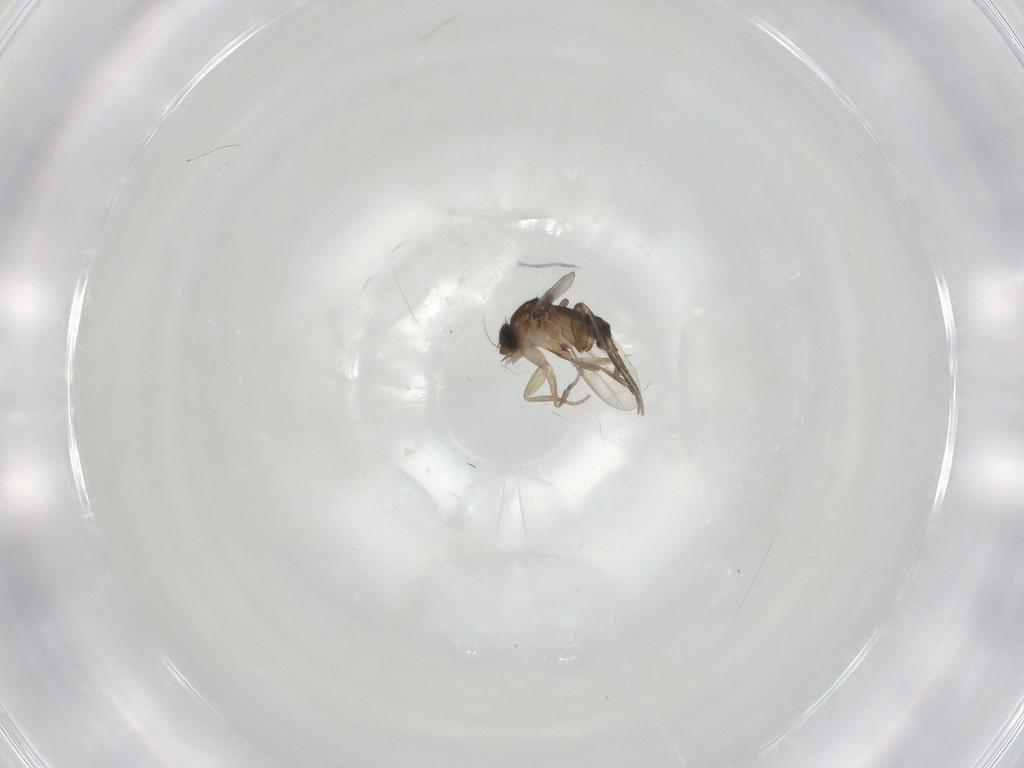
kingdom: Animalia
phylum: Arthropoda
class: Insecta
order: Diptera
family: Phoridae
